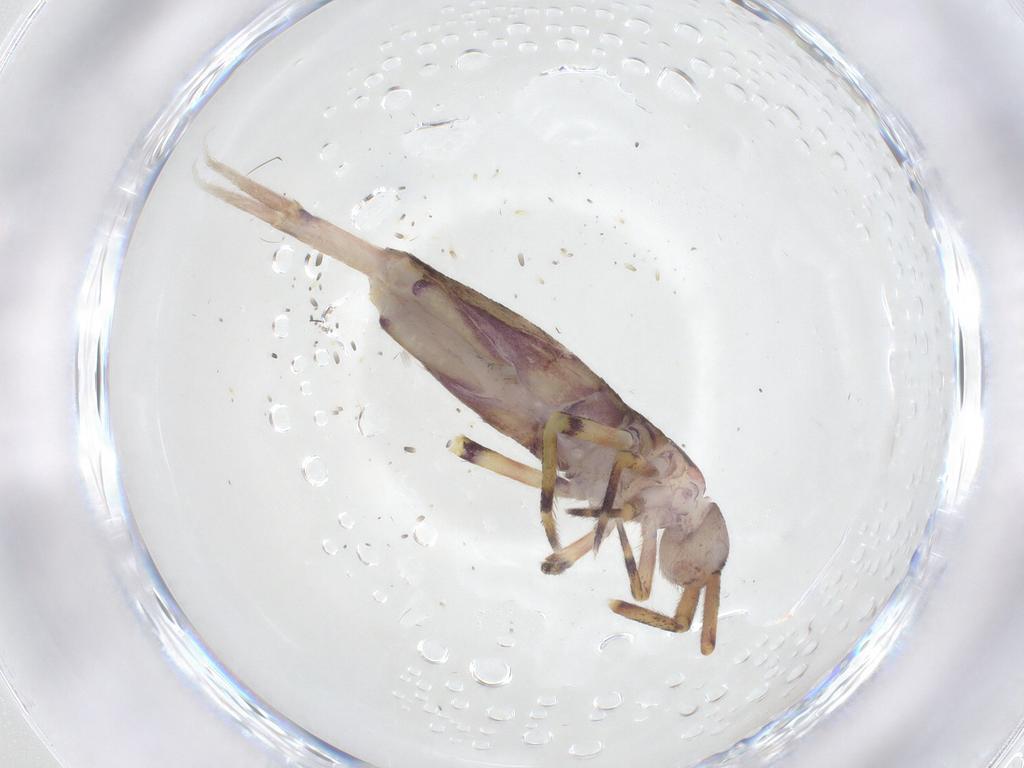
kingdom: Animalia
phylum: Arthropoda
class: Collembola
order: Entomobryomorpha
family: Entomobryidae
